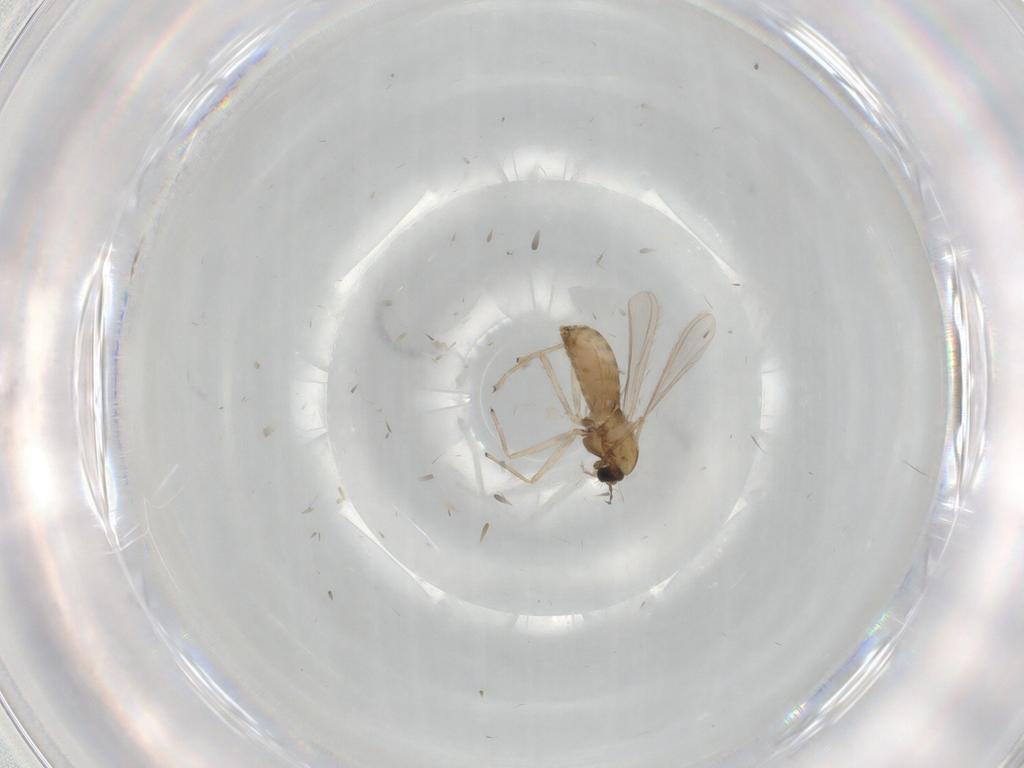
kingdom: Animalia
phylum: Arthropoda
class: Insecta
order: Diptera
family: Chironomidae
